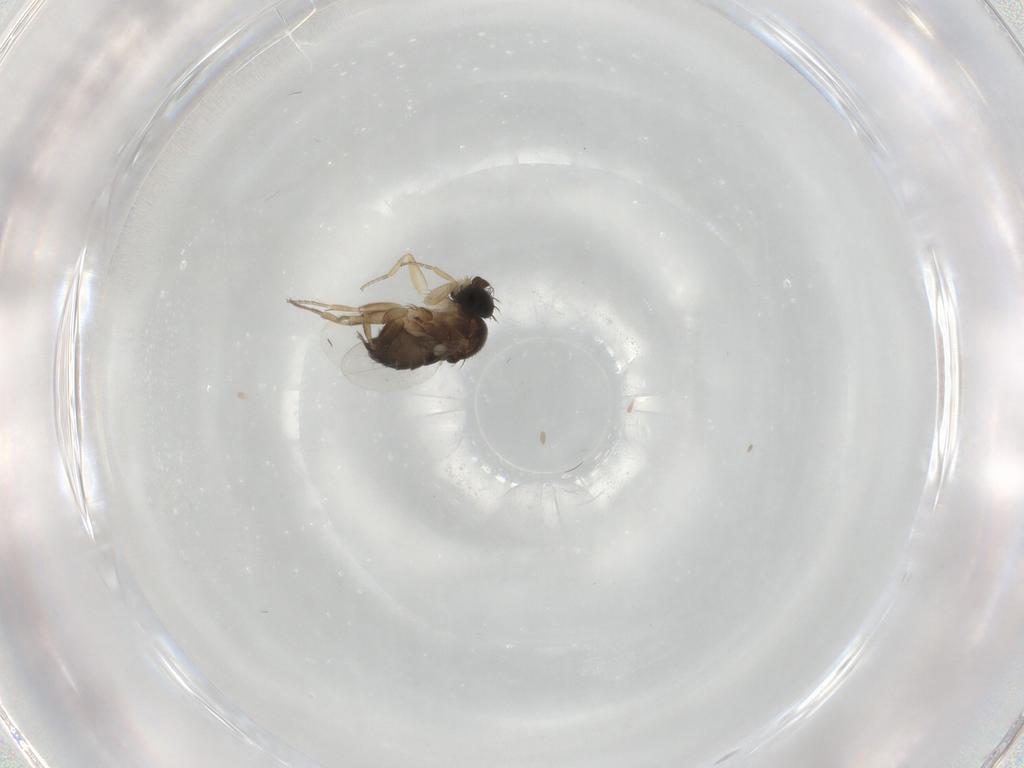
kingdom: Animalia
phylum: Arthropoda
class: Insecta
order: Diptera
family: Phoridae
